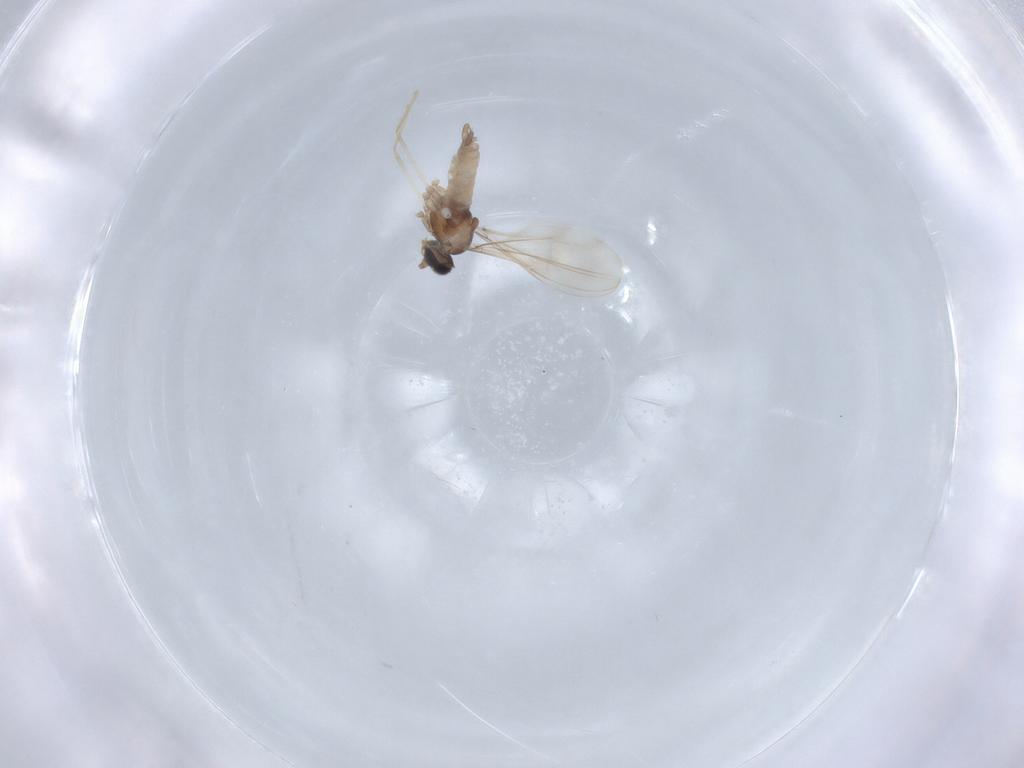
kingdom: Animalia
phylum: Arthropoda
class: Insecta
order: Diptera
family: Cecidomyiidae
